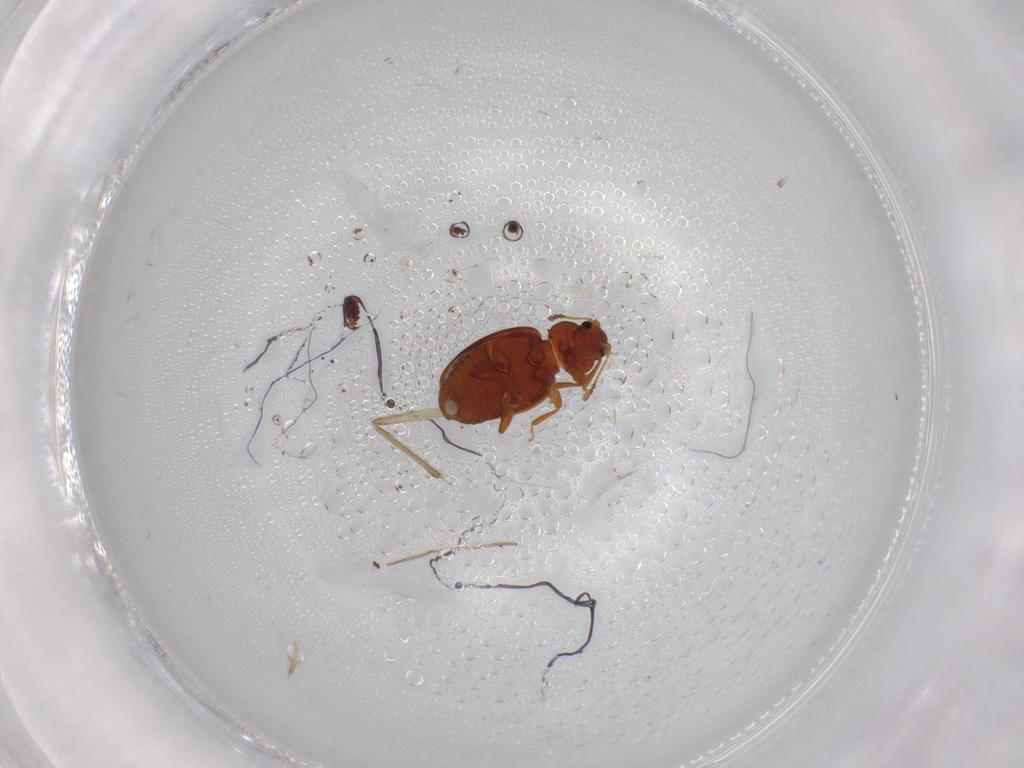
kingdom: Animalia
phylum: Arthropoda
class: Insecta
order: Coleoptera
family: Latridiidae
